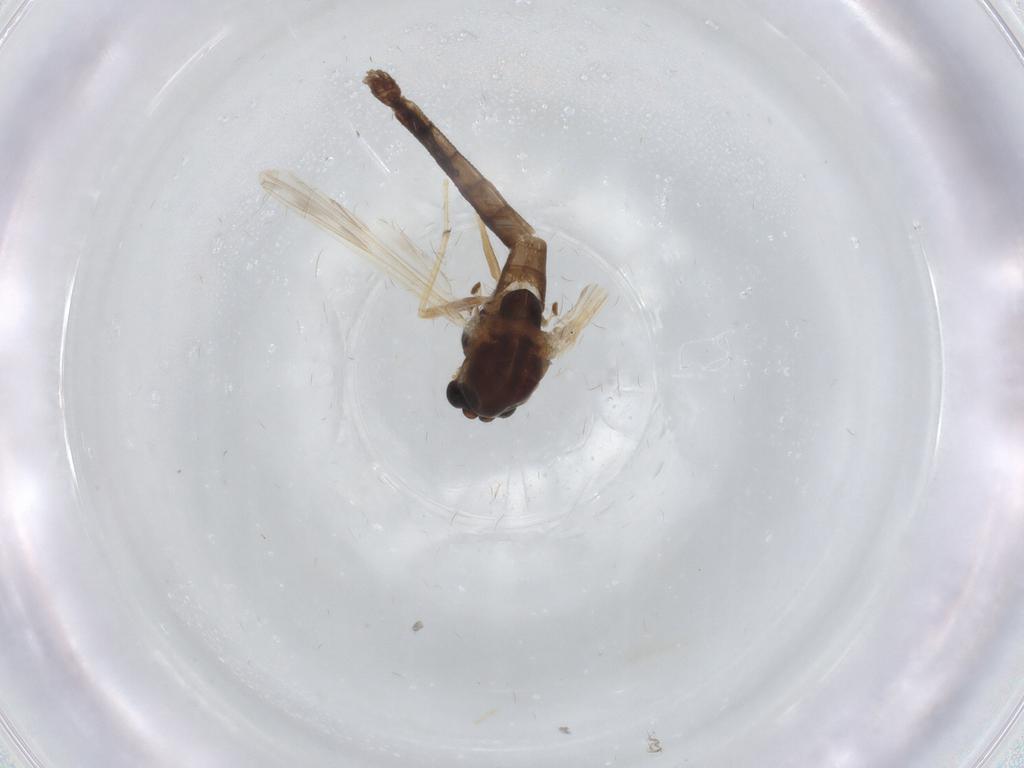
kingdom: Animalia
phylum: Arthropoda
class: Insecta
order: Diptera
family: Chironomidae
